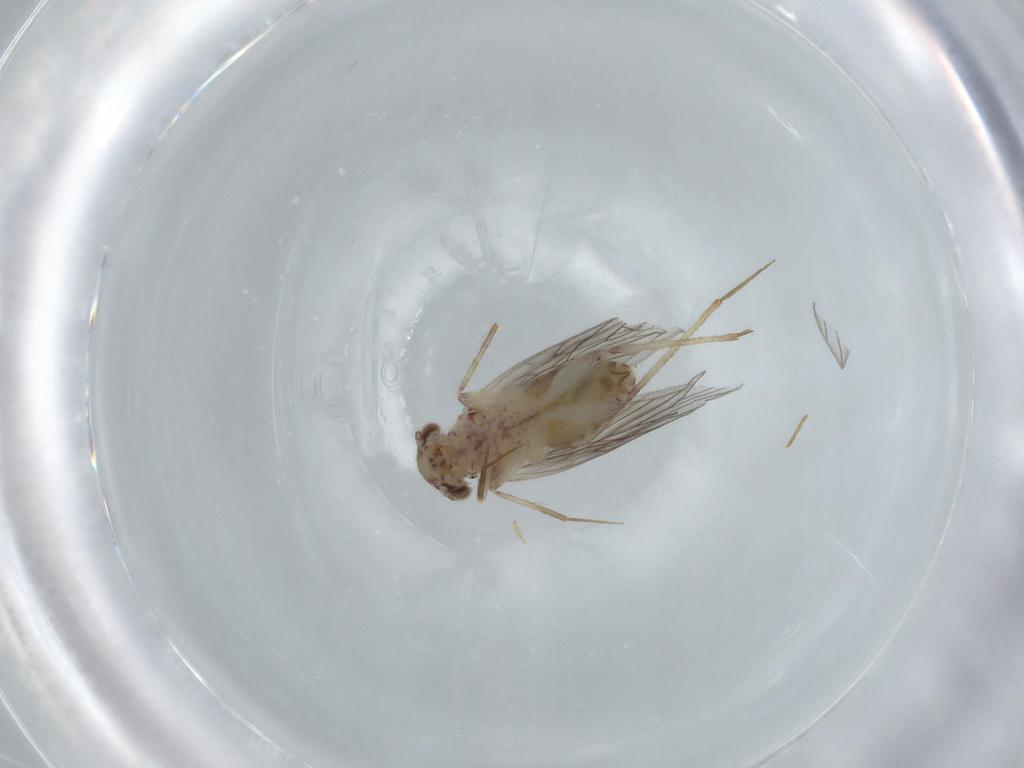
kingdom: Animalia
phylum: Arthropoda
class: Insecta
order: Psocodea
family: Lepidopsocidae
